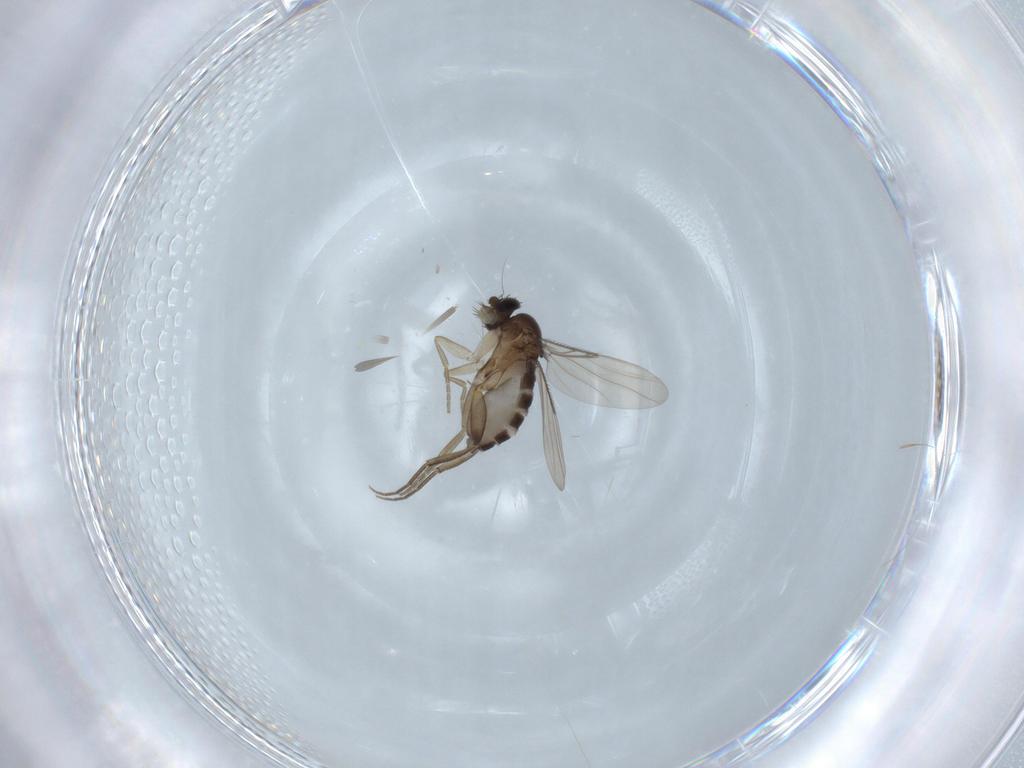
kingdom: Animalia
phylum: Arthropoda
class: Insecta
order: Diptera
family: Phoridae
